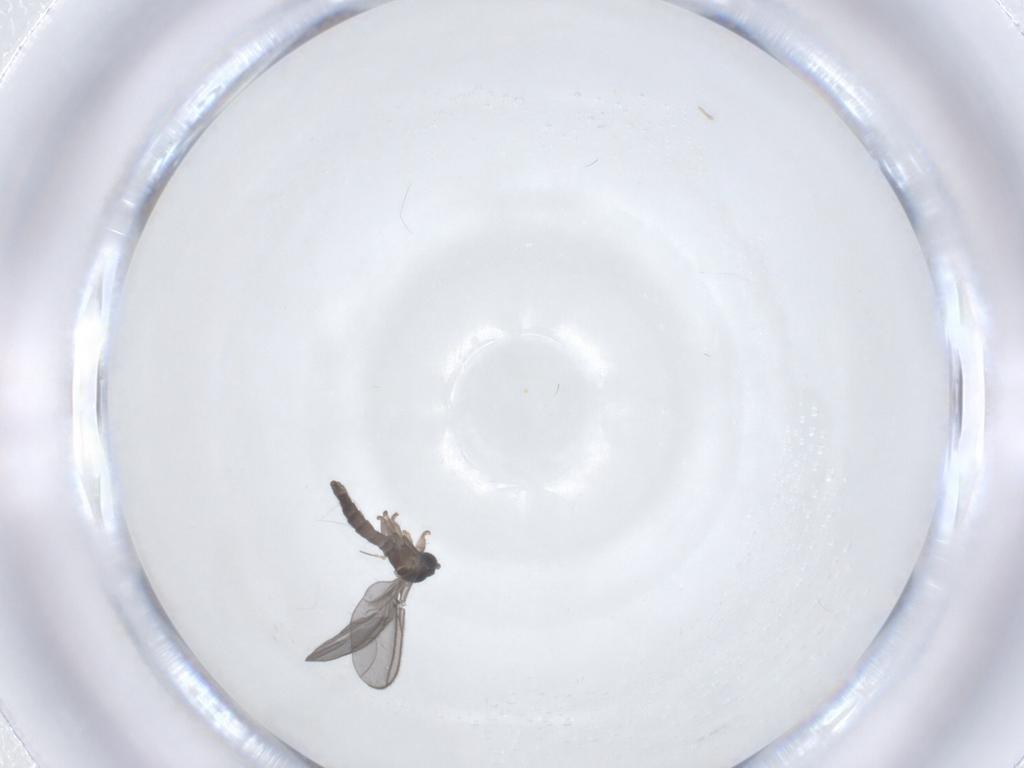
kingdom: Animalia
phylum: Arthropoda
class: Insecta
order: Diptera
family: Sciaridae
